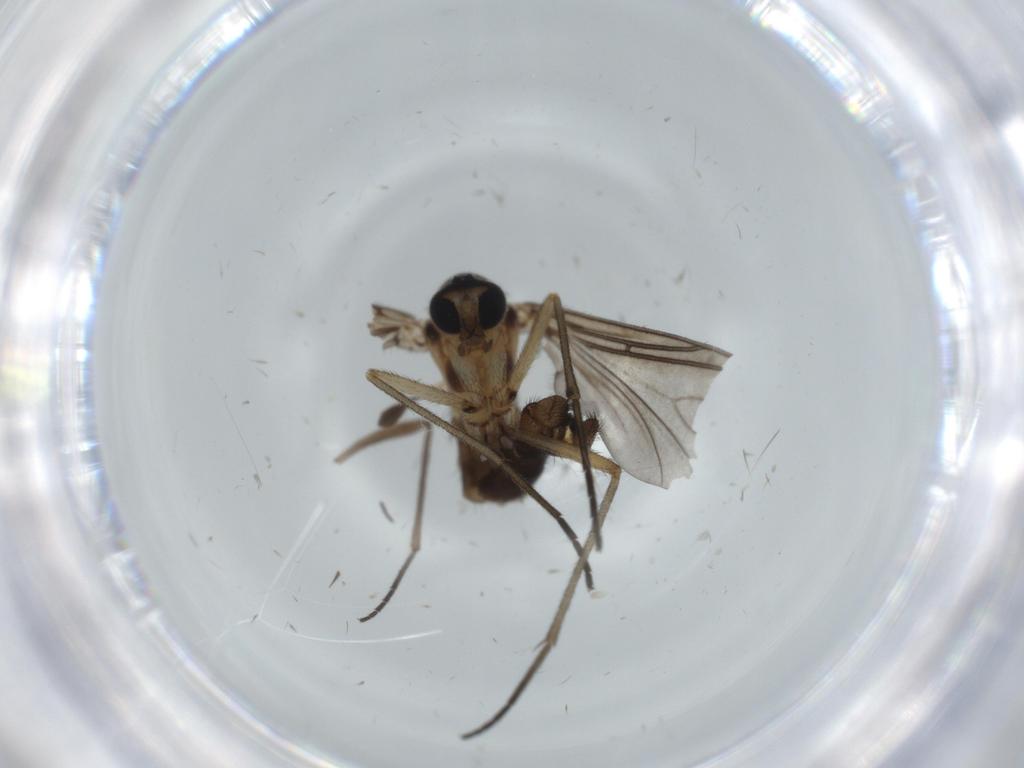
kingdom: Animalia
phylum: Arthropoda
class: Insecta
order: Diptera
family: Sciaridae
